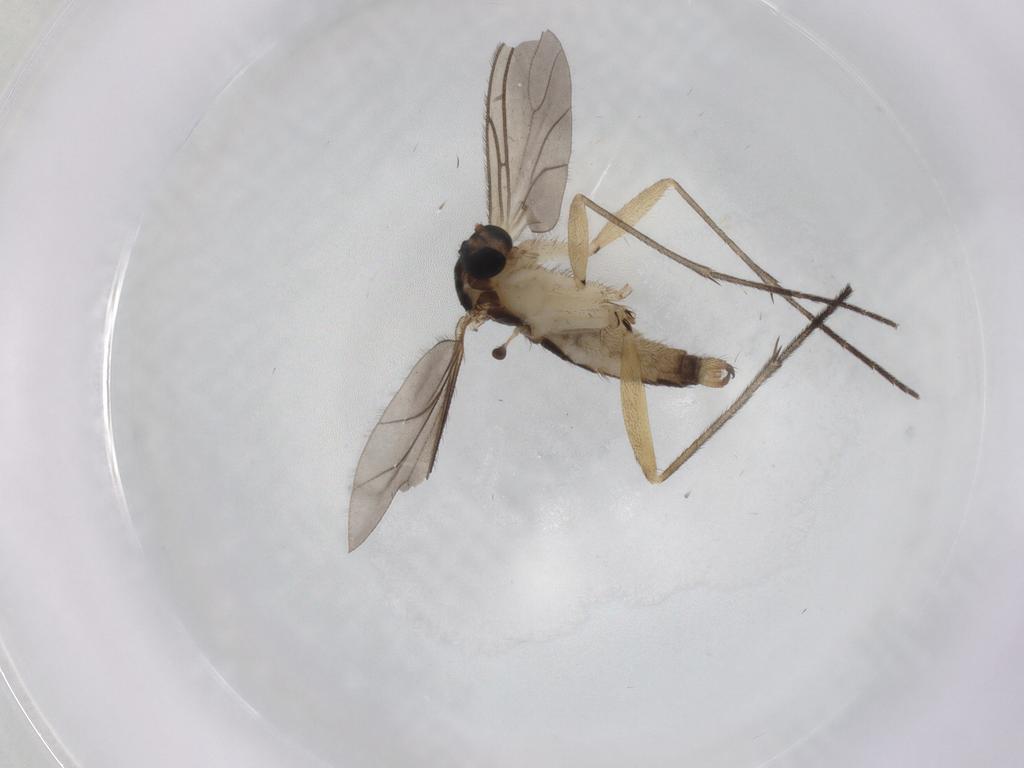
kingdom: Animalia
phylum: Arthropoda
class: Insecta
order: Diptera
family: Sciaridae
